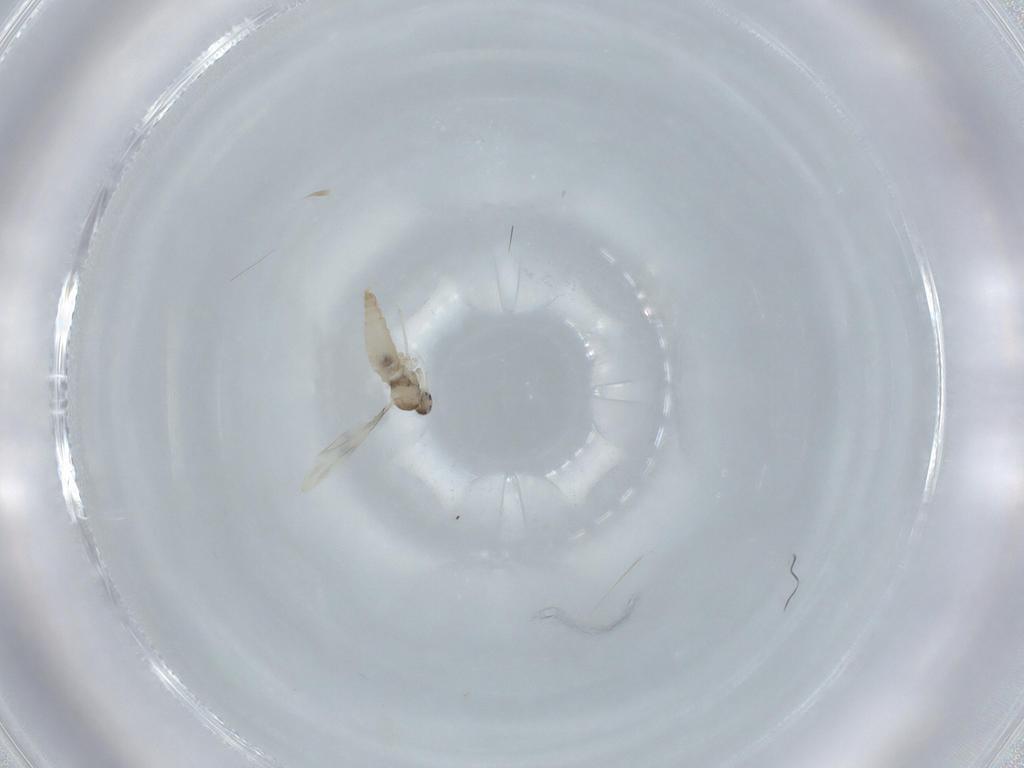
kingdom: Animalia
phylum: Arthropoda
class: Insecta
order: Diptera
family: Cecidomyiidae
